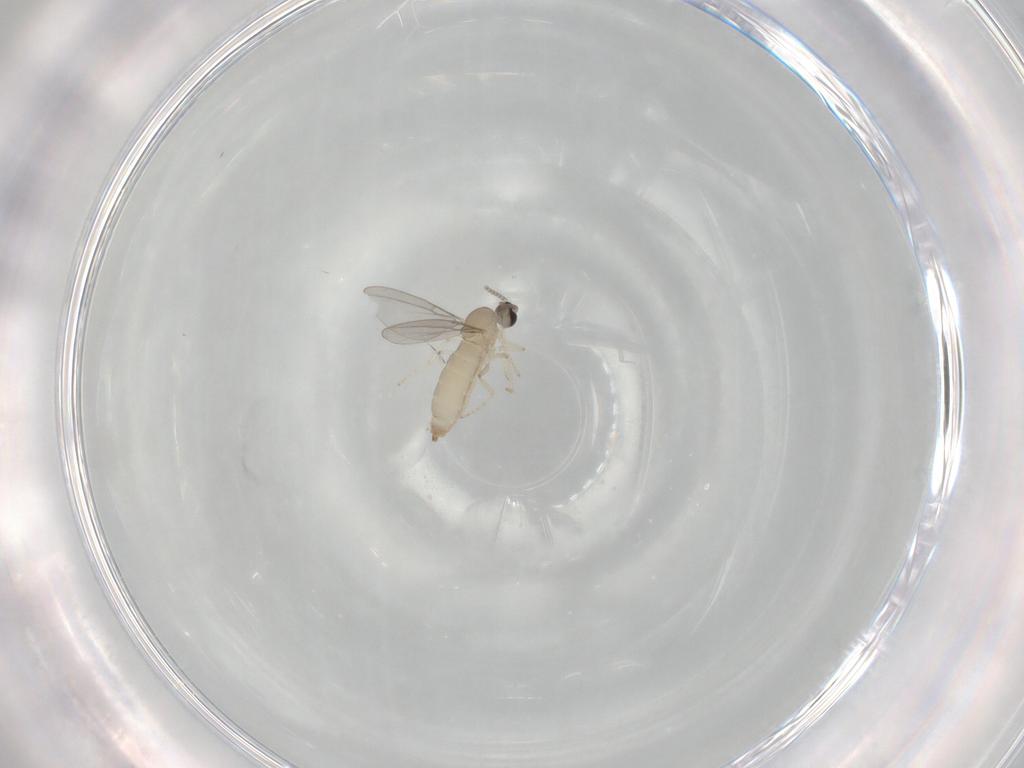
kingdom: Animalia
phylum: Arthropoda
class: Insecta
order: Diptera
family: Cecidomyiidae
